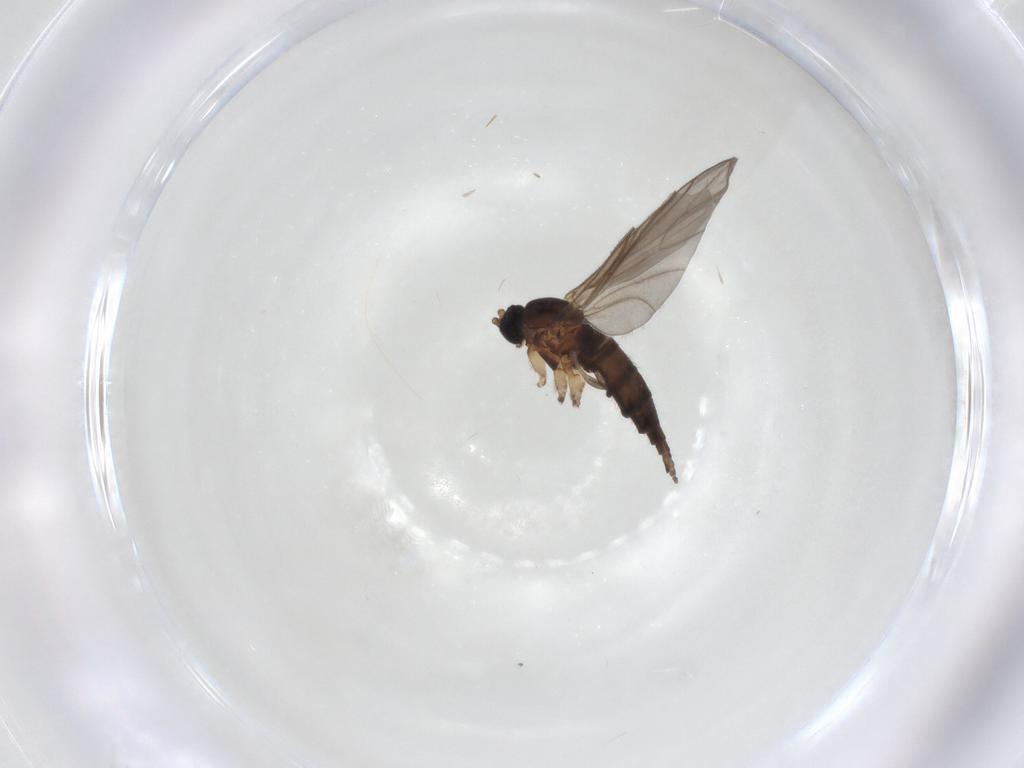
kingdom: Animalia
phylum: Arthropoda
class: Insecta
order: Diptera
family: Sciaridae
